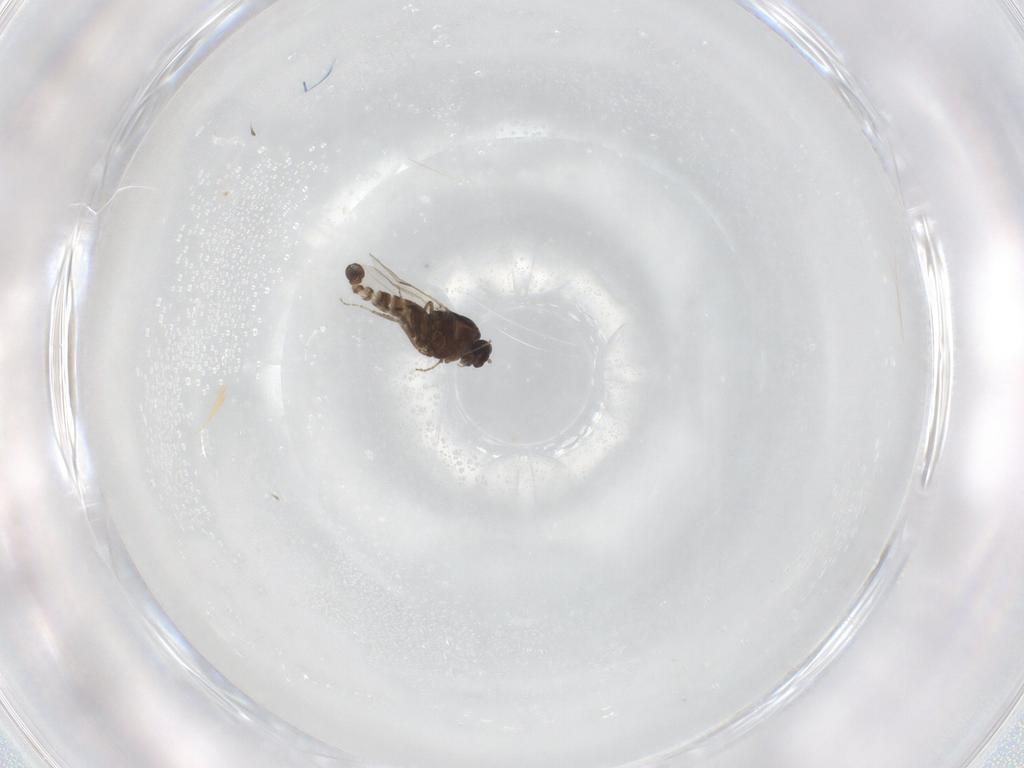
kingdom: Animalia
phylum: Arthropoda
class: Insecta
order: Diptera
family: Ceratopogonidae
